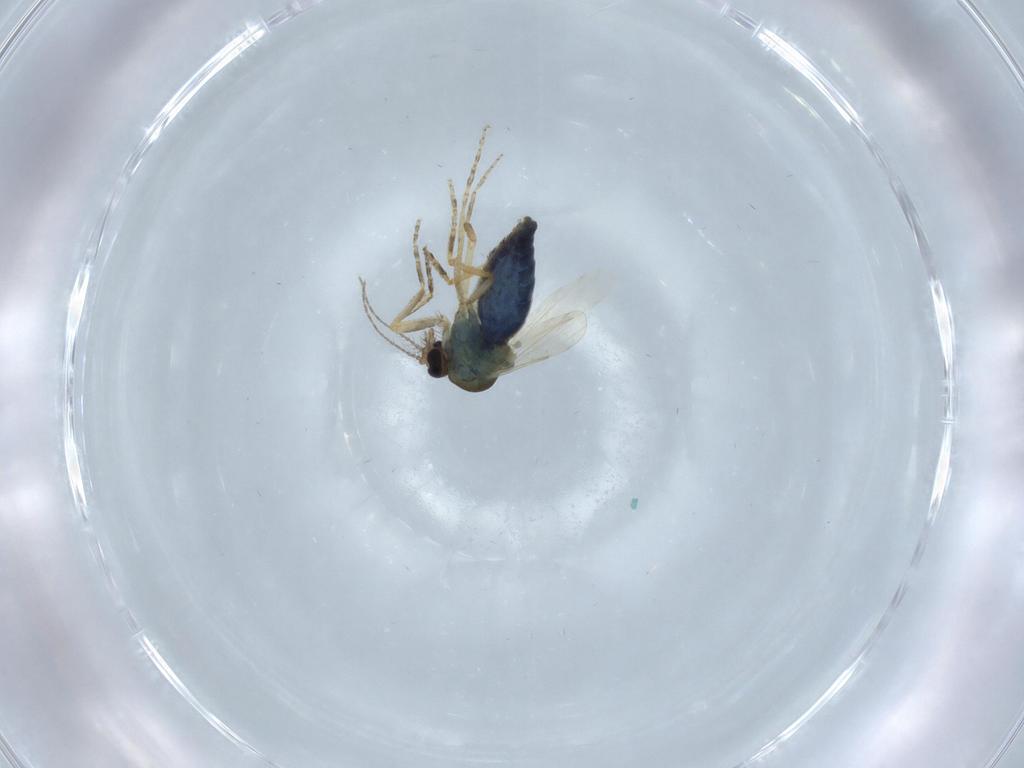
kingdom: Animalia
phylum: Arthropoda
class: Insecta
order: Diptera
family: Ceratopogonidae
